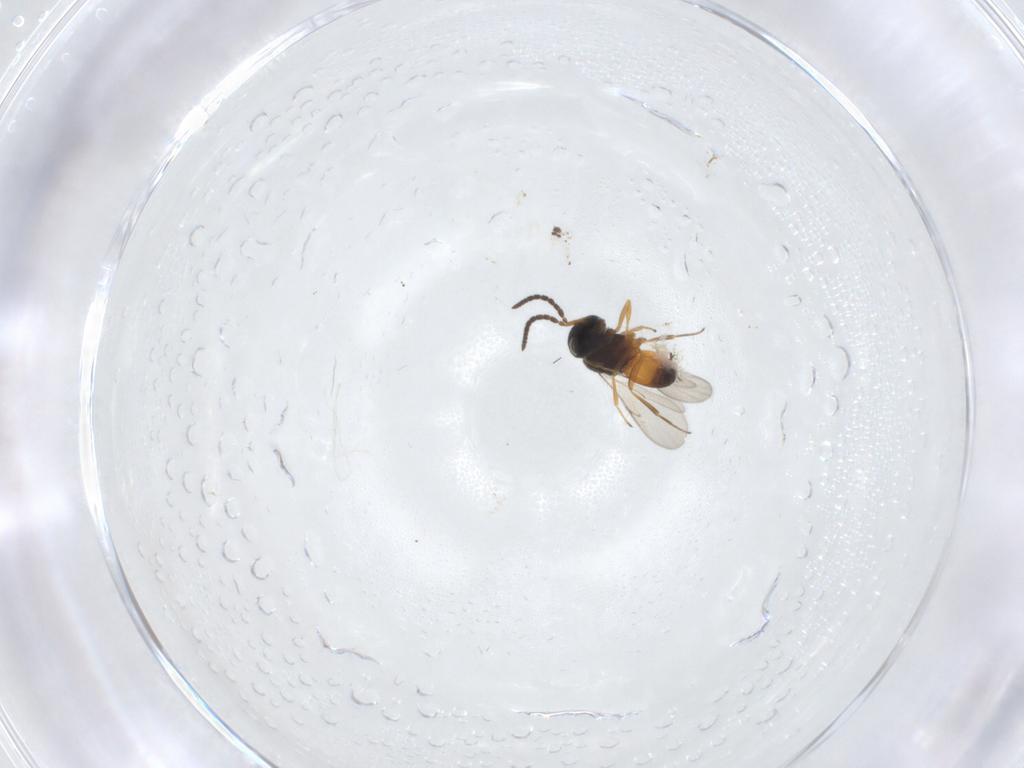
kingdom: Animalia
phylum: Arthropoda
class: Insecta
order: Hymenoptera
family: Scelionidae
